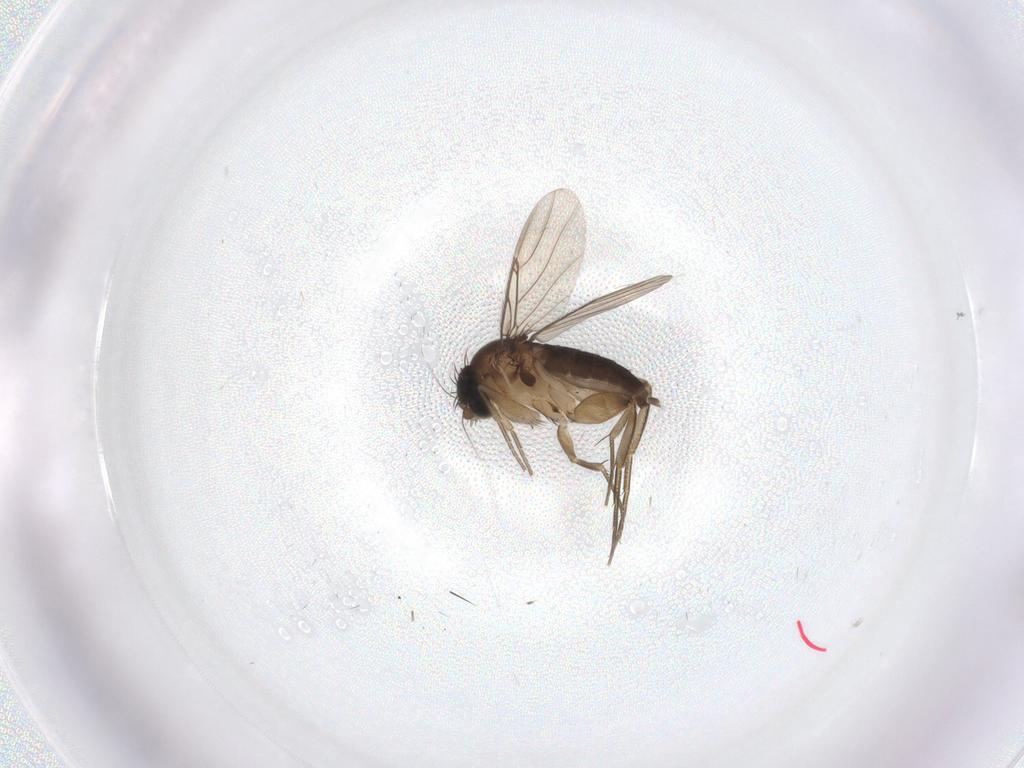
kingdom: Animalia
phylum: Arthropoda
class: Insecta
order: Diptera
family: Phoridae
